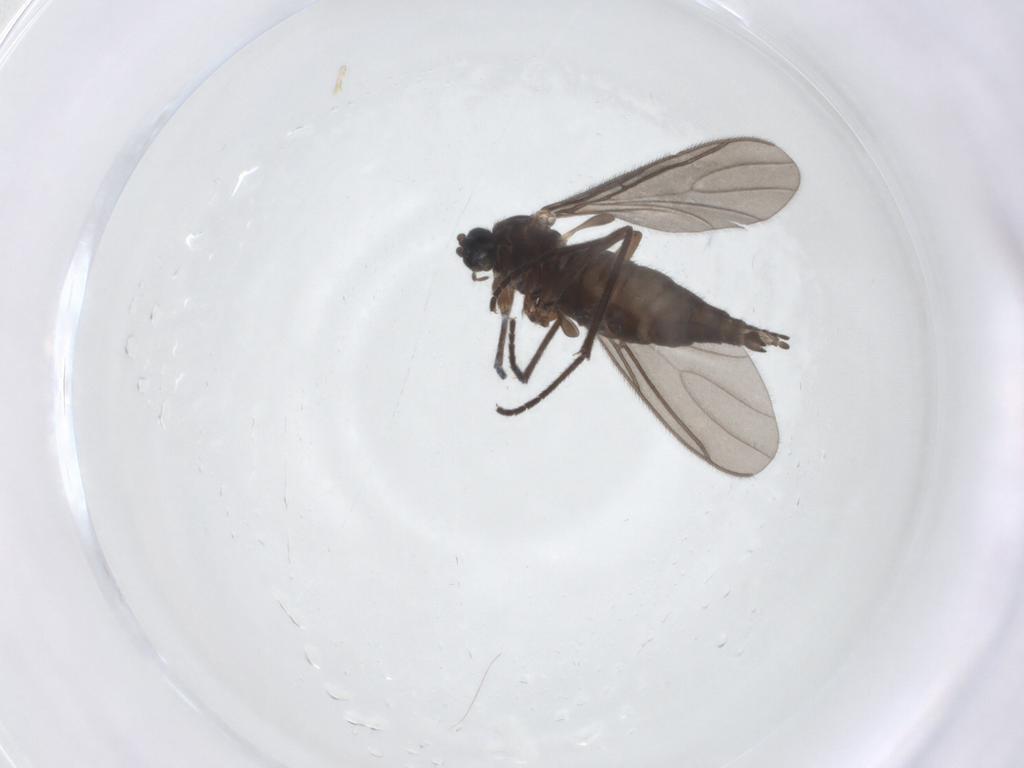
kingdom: Animalia
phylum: Arthropoda
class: Insecta
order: Diptera
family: Sciaridae
